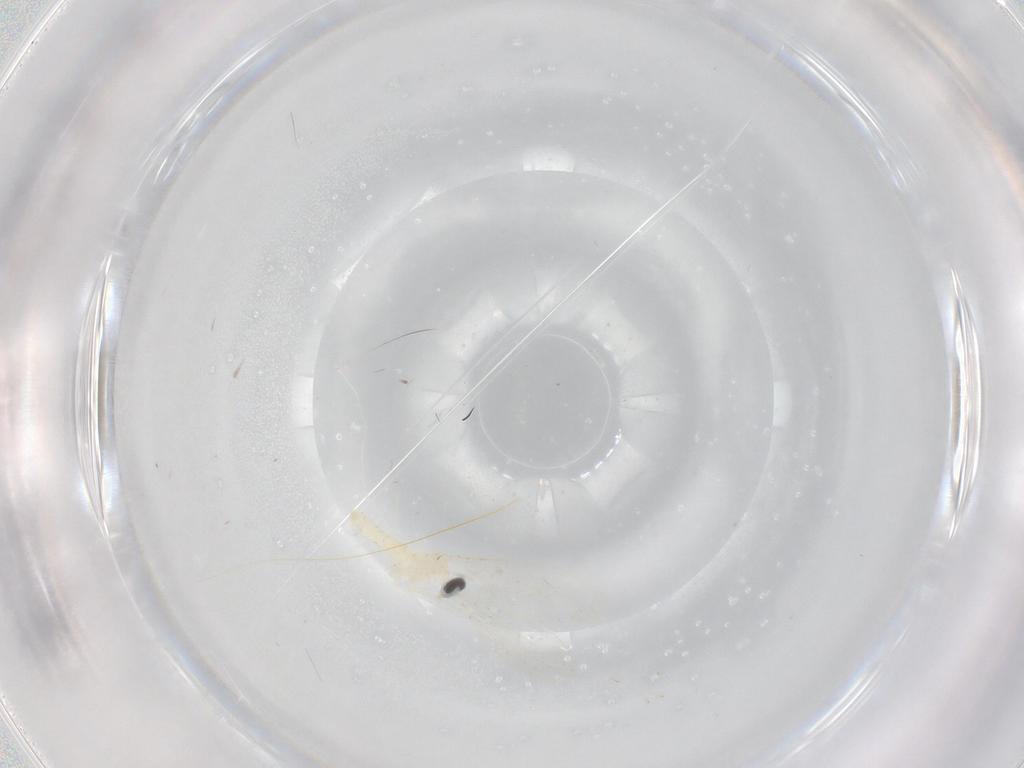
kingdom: Animalia
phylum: Arthropoda
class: Insecta
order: Diptera
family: Cecidomyiidae
